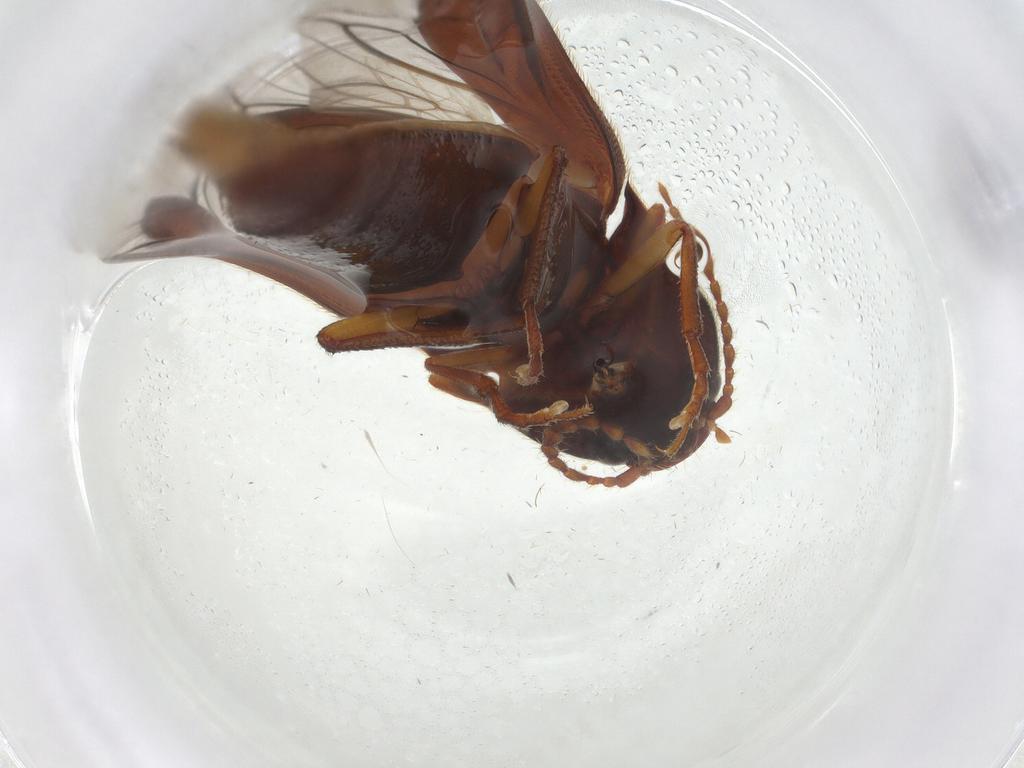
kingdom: Animalia
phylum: Arthropoda
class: Insecta
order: Coleoptera
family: Elateridae
